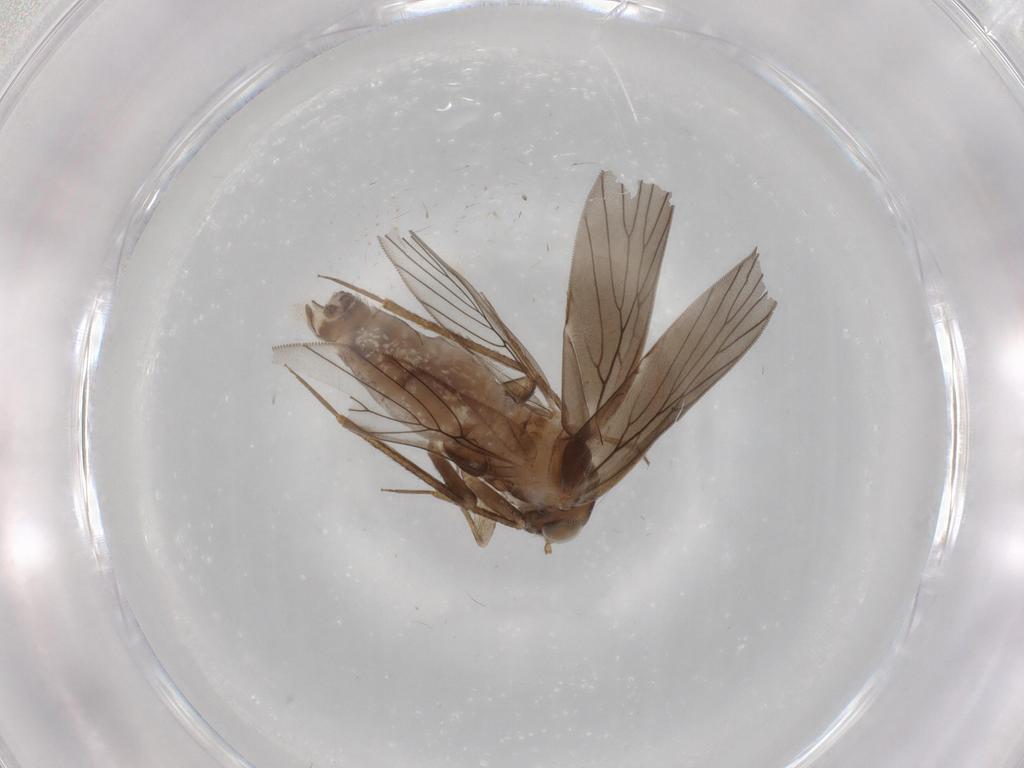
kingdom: Animalia
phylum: Arthropoda
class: Insecta
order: Psocodea
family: Lepidopsocidae
